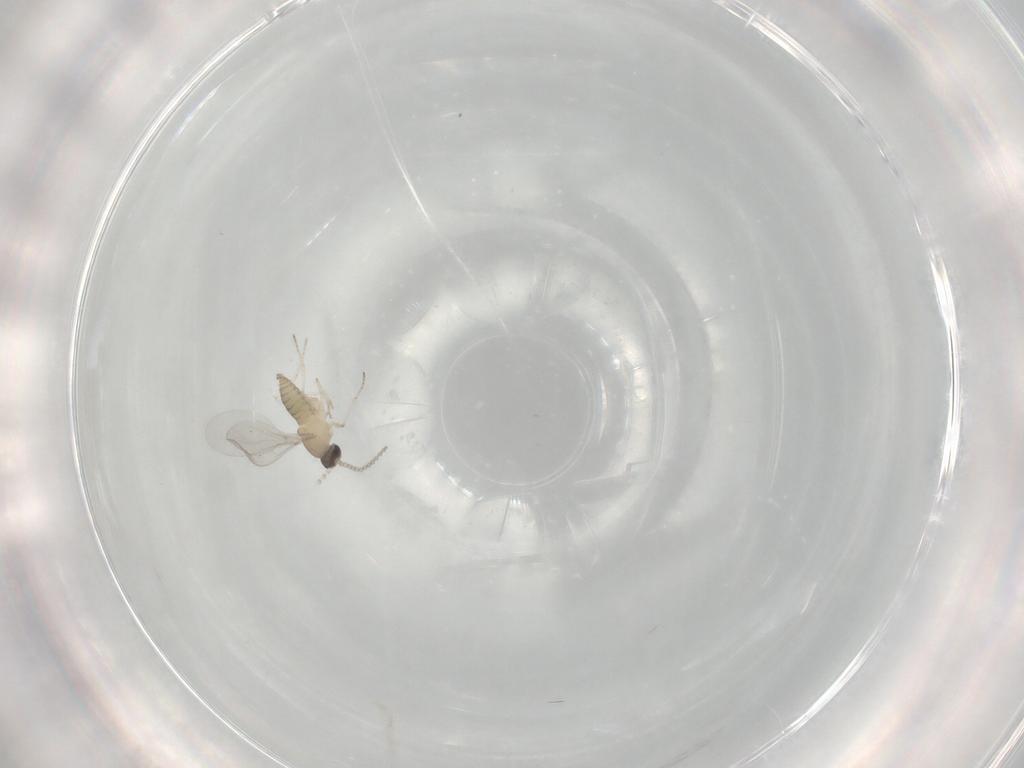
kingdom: Animalia
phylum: Arthropoda
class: Insecta
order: Diptera
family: Cecidomyiidae
